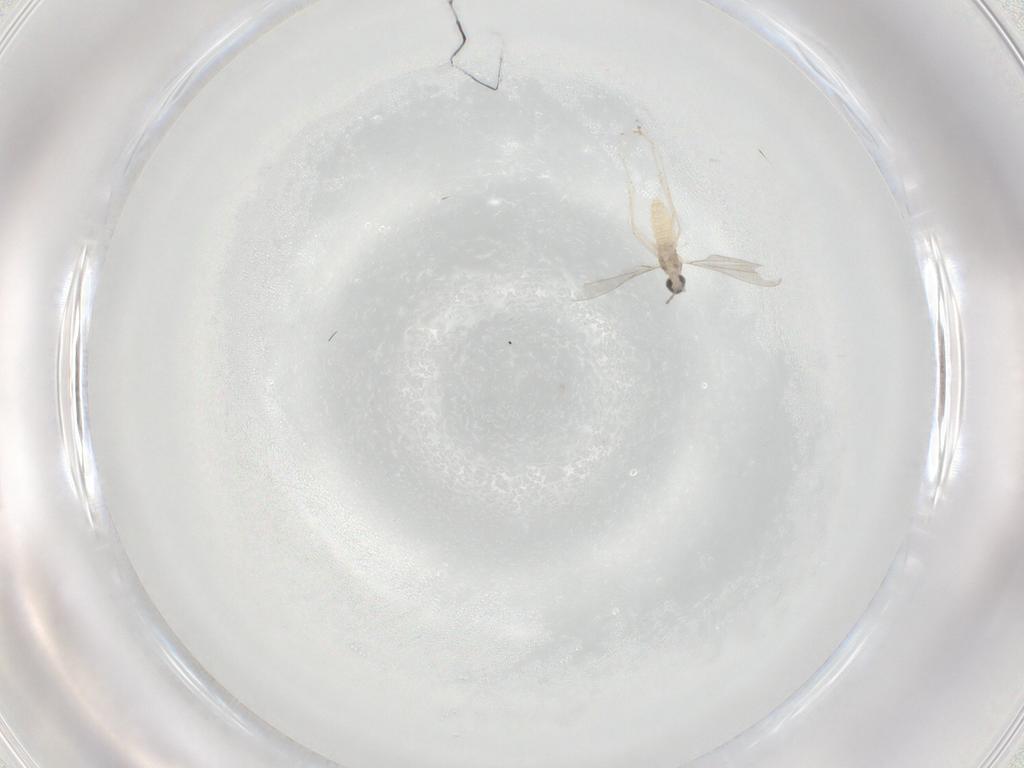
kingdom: Animalia
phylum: Arthropoda
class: Insecta
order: Diptera
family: Cecidomyiidae
